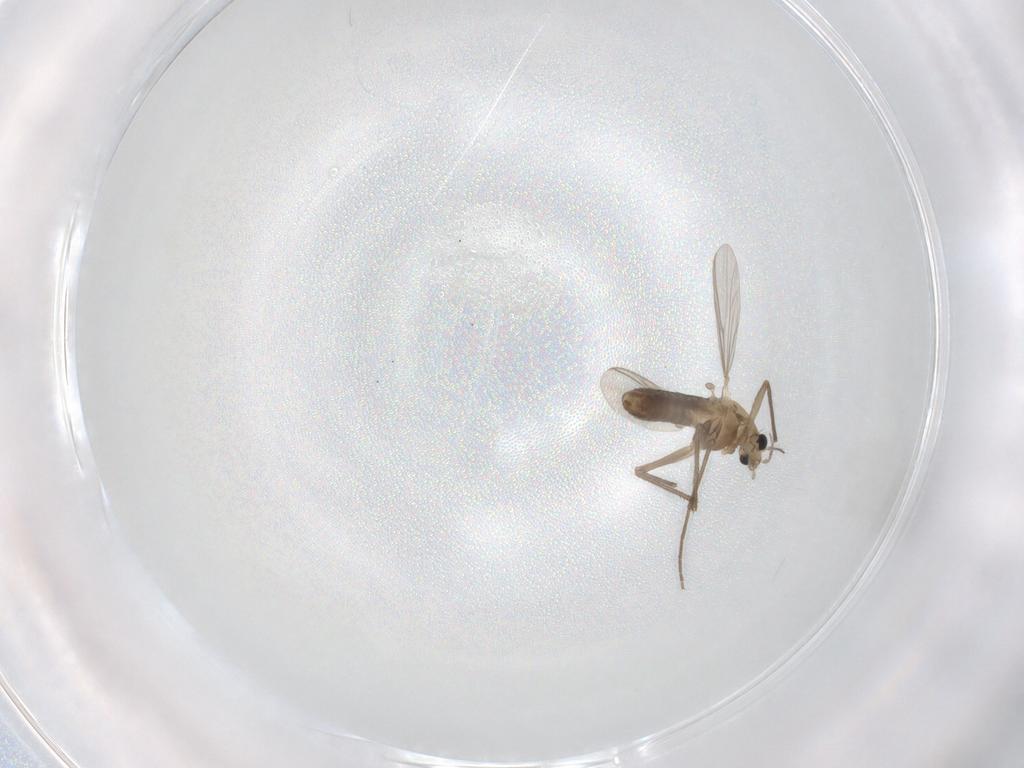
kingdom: Animalia
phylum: Arthropoda
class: Insecta
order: Diptera
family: Chironomidae
